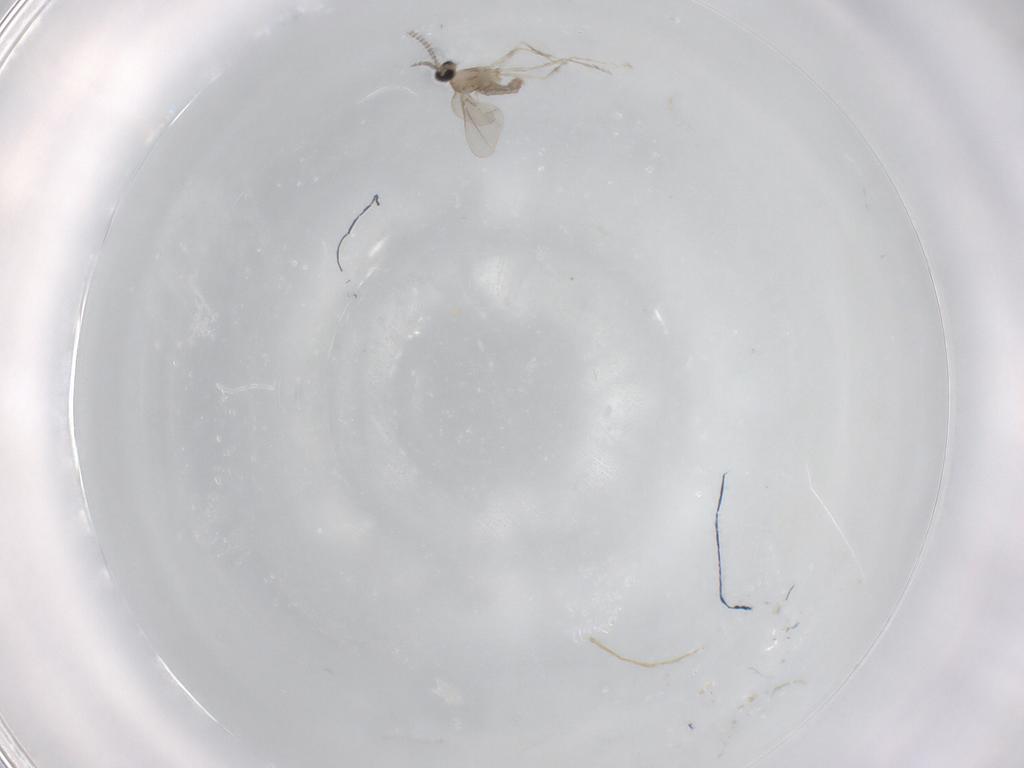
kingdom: Animalia
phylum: Arthropoda
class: Insecta
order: Diptera
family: Cecidomyiidae
